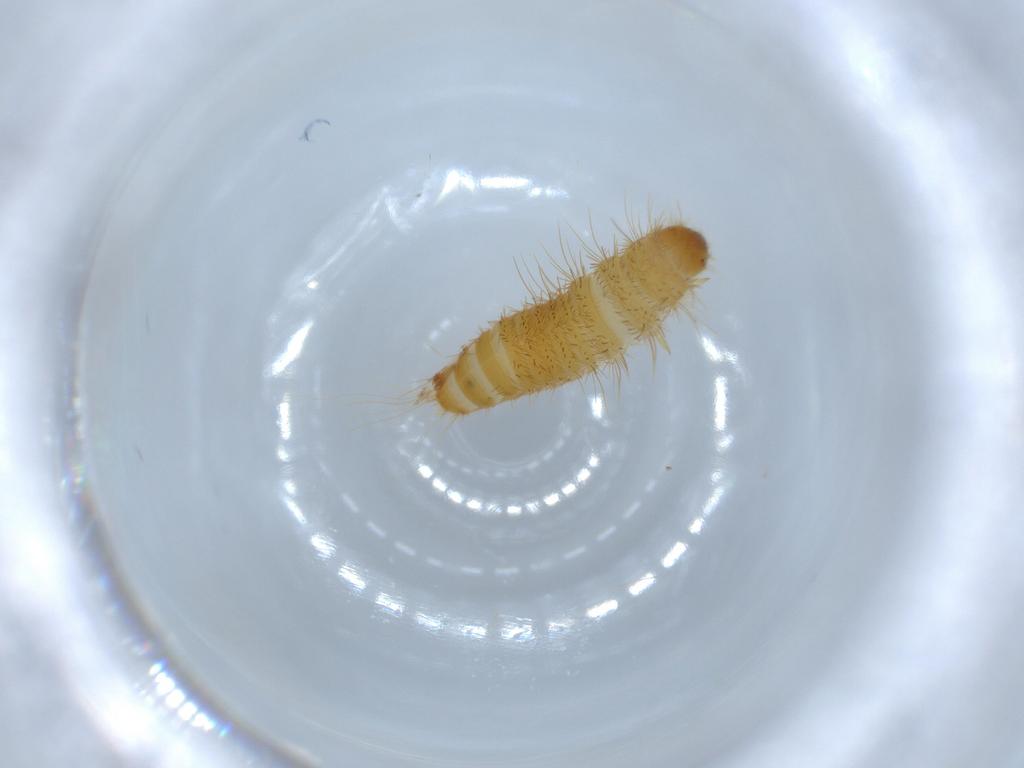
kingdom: Animalia
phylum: Arthropoda
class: Insecta
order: Coleoptera
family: Dermestidae
